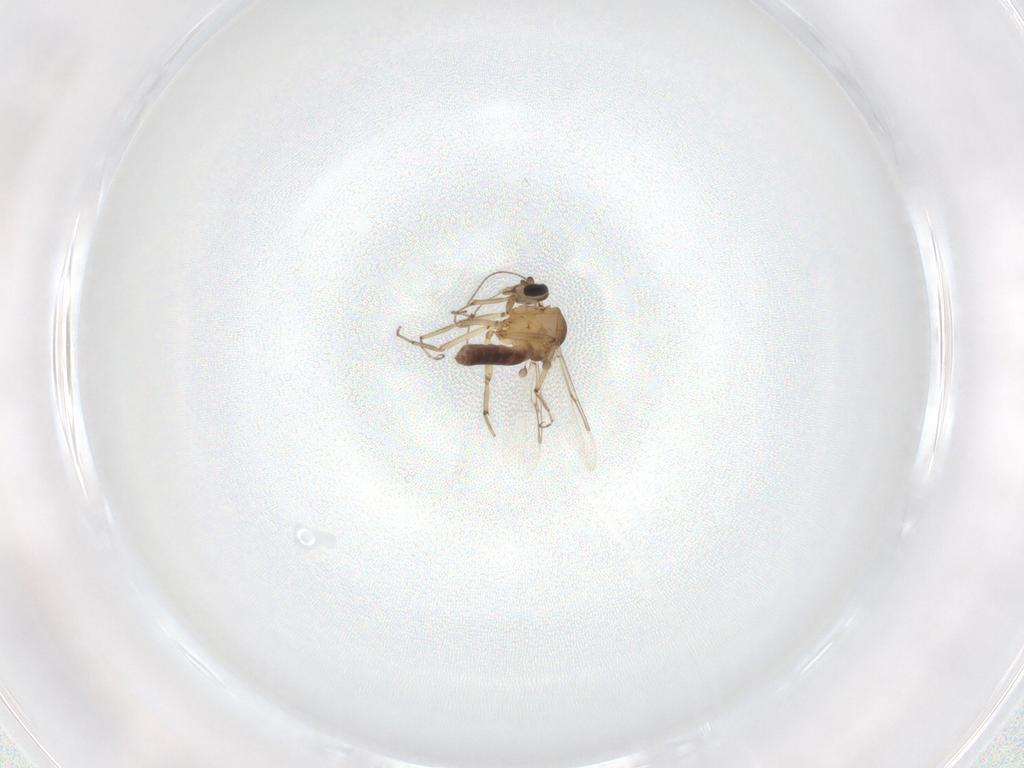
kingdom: Animalia
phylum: Arthropoda
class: Insecta
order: Diptera
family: Ceratopogonidae
